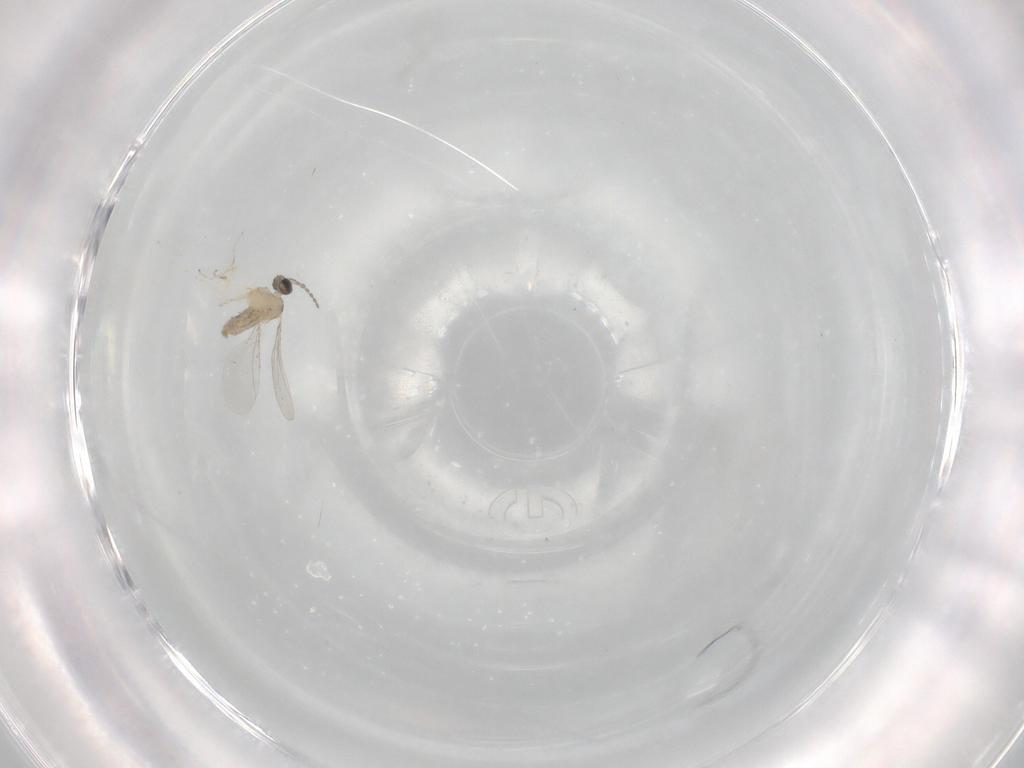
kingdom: Animalia
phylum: Arthropoda
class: Insecta
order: Diptera
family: Cecidomyiidae
